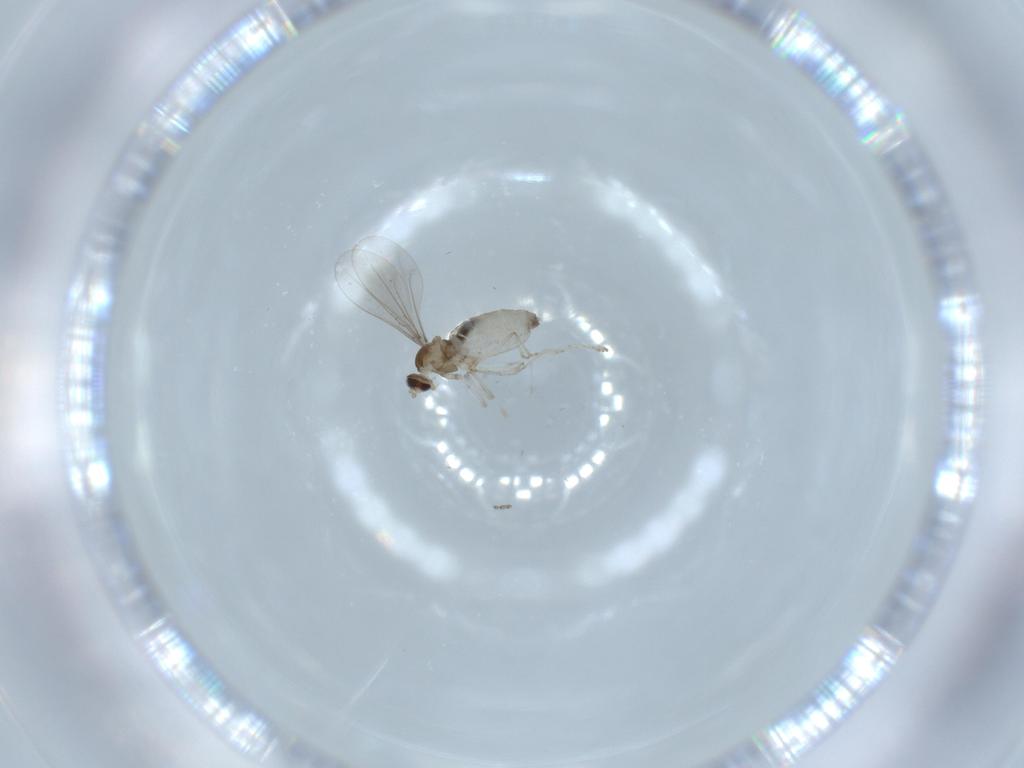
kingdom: Animalia
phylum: Arthropoda
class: Insecta
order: Diptera
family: Ceratopogonidae
